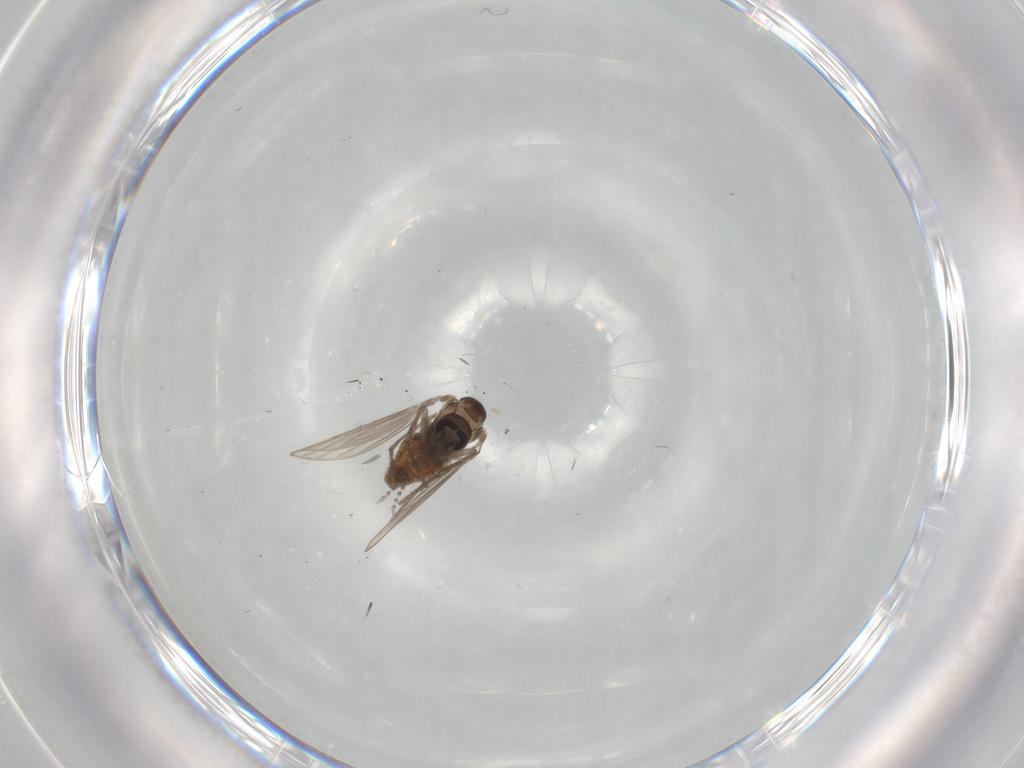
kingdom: Animalia
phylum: Arthropoda
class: Insecta
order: Diptera
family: Psychodidae
